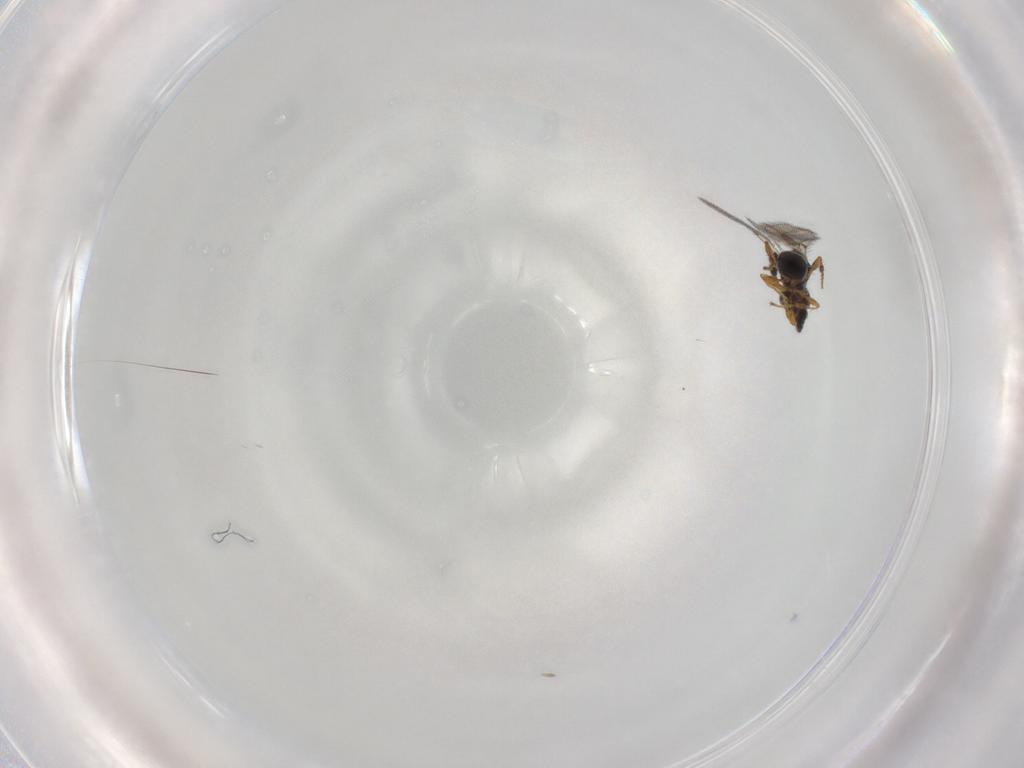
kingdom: Animalia
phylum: Arthropoda
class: Insecta
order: Hymenoptera
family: Diapriidae
